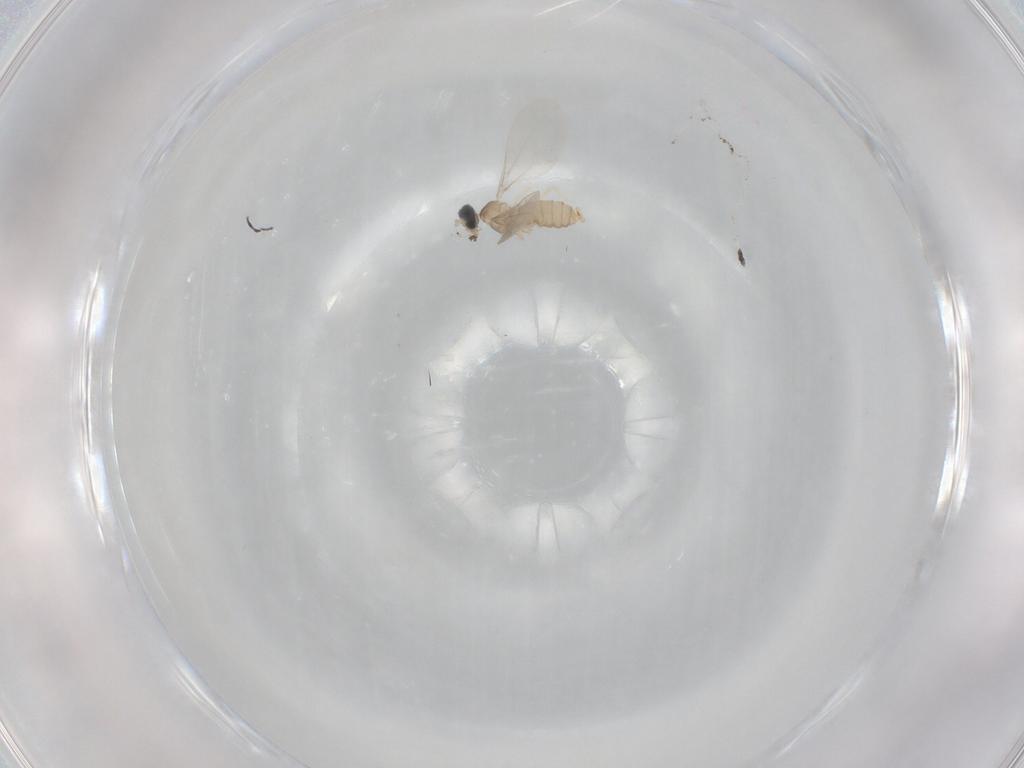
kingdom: Animalia
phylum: Arthropoda
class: Insecta
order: Diptera
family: Cecidomyiidae
